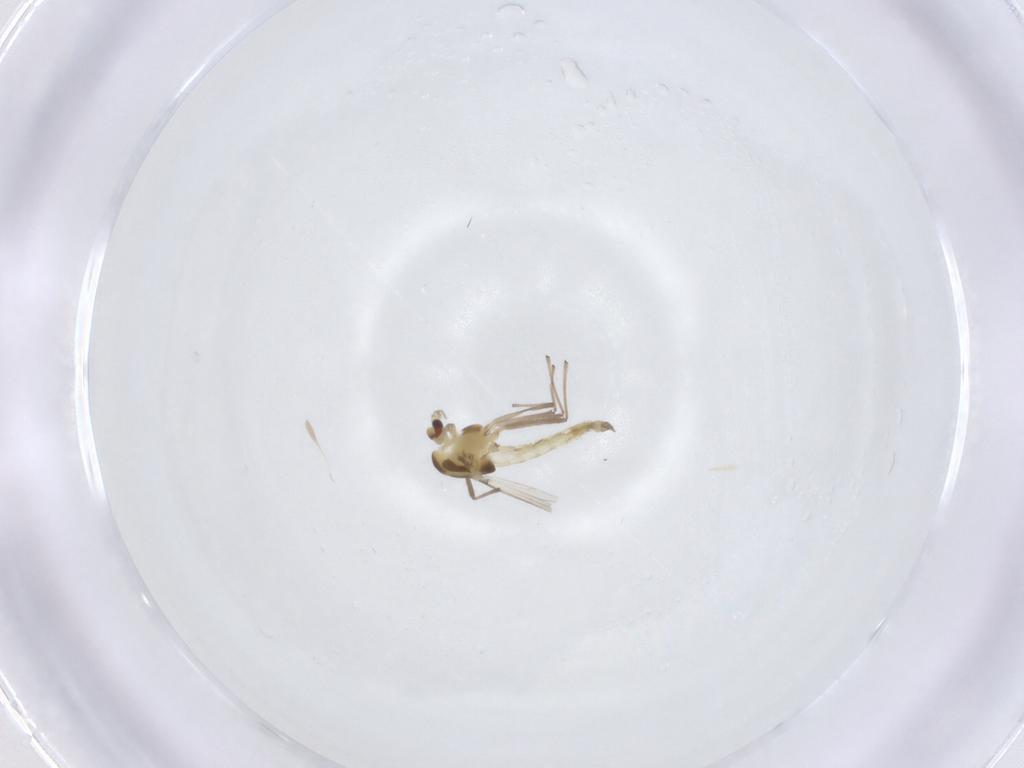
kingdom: Animalia
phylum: Arthropoda
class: Insecta
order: Diptera
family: Chironomidae
